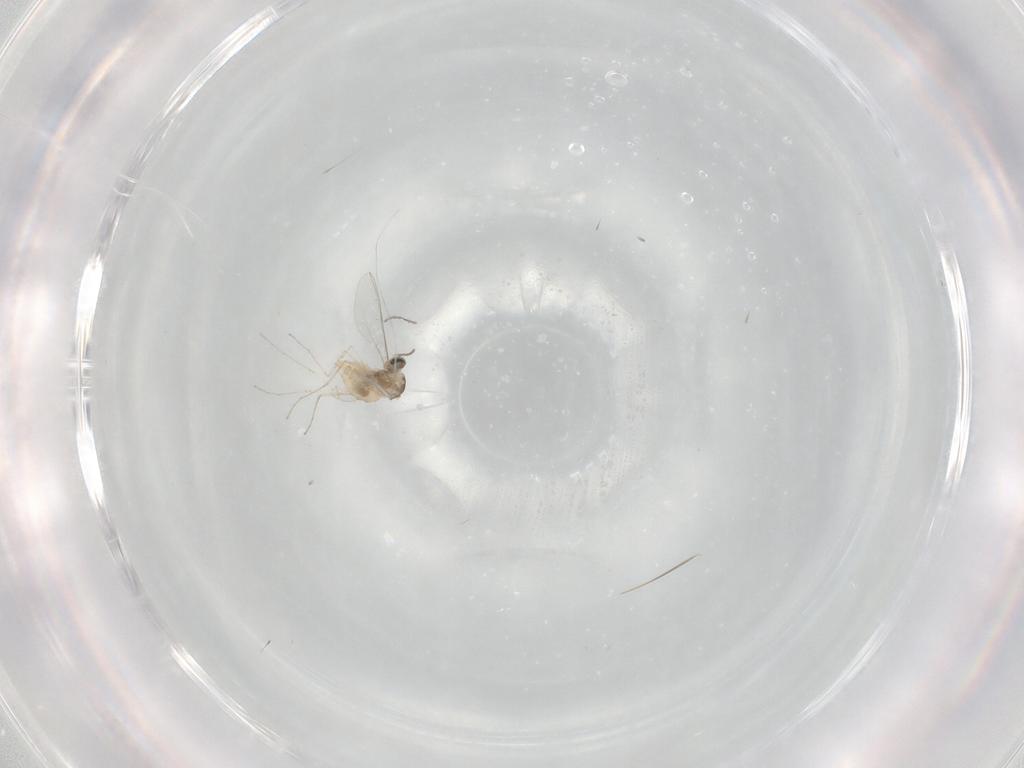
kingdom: Animalia
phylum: Arthropoda
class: Insecta
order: Diptera
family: Cecidomyiidae
